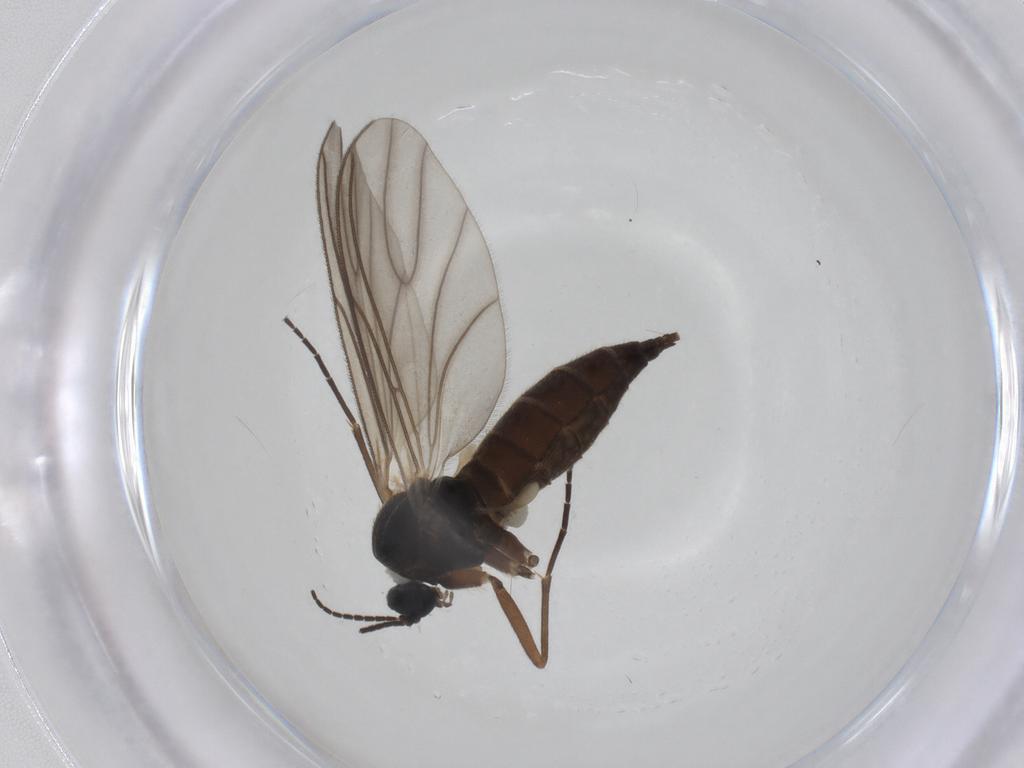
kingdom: Animalia
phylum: Arthropoda
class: Insecta
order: Diptera
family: Sciaridae
